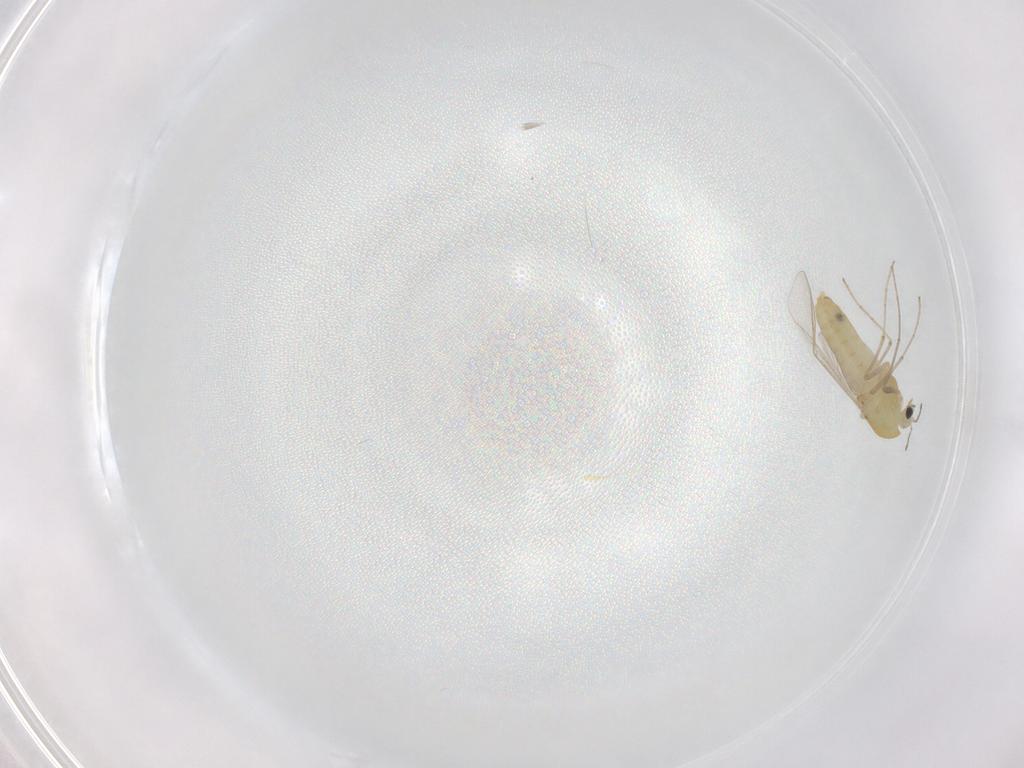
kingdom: Animalia
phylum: Arthropoda
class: Insecta
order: Diptera
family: Chironomidae
